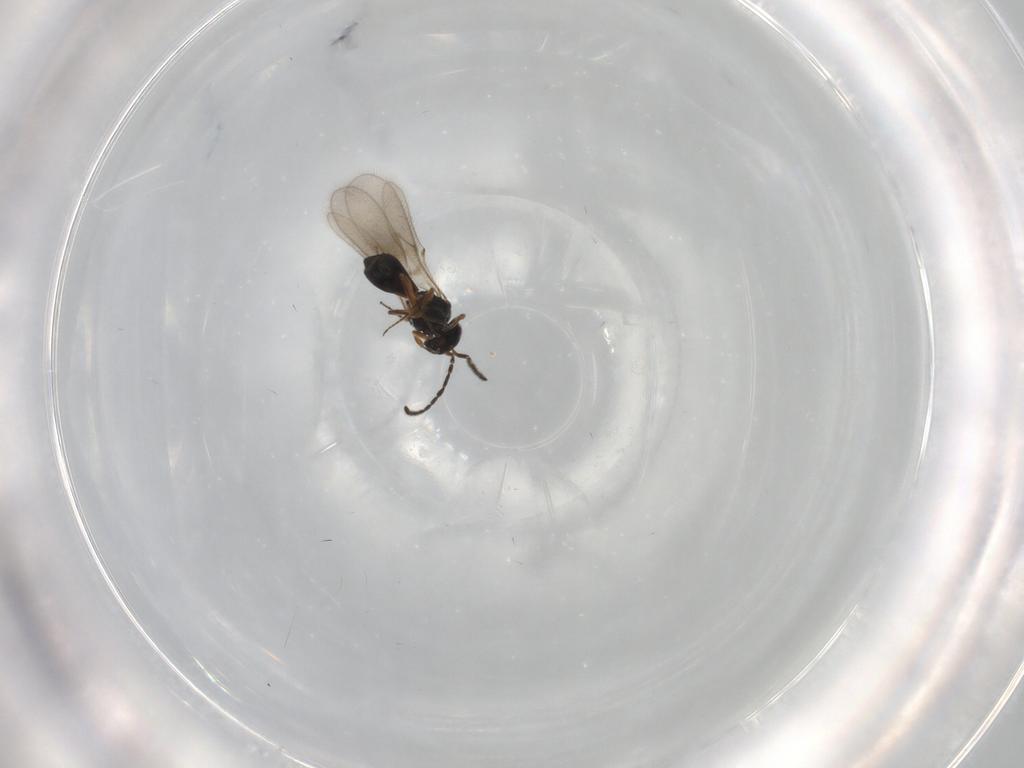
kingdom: Animalia
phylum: Arthropoda
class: Insecta
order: Hymenoptera
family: Scelionidae
